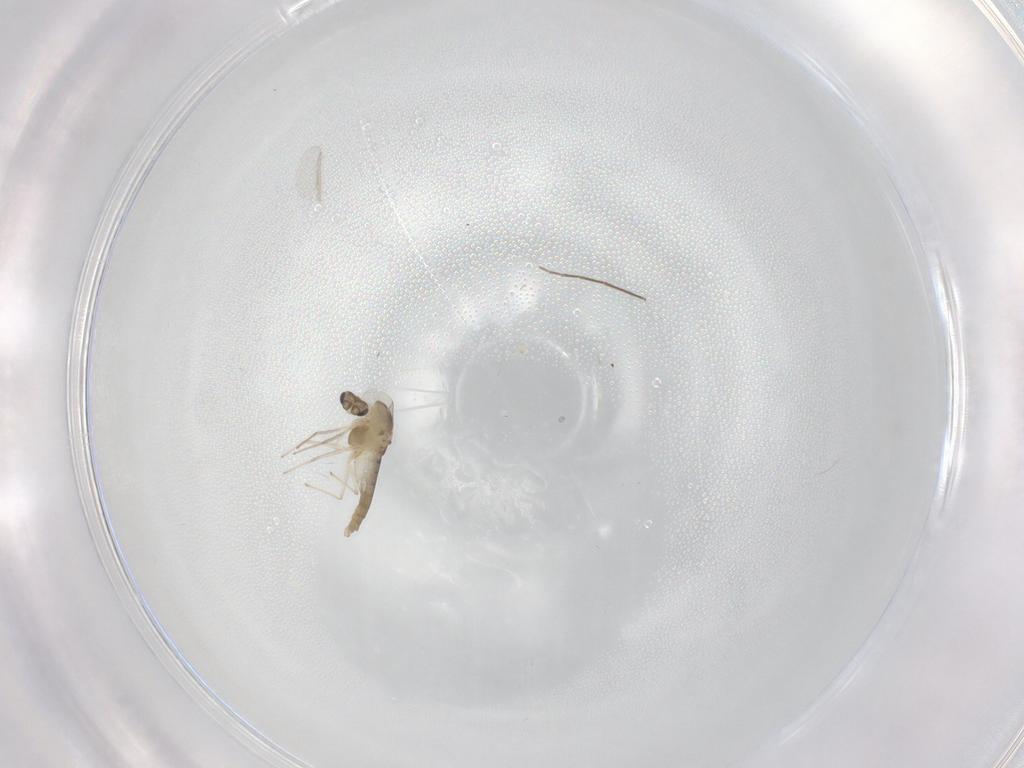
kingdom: Animalia
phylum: Arthropoda
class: Insecta
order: Diptera
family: Chironomidae
